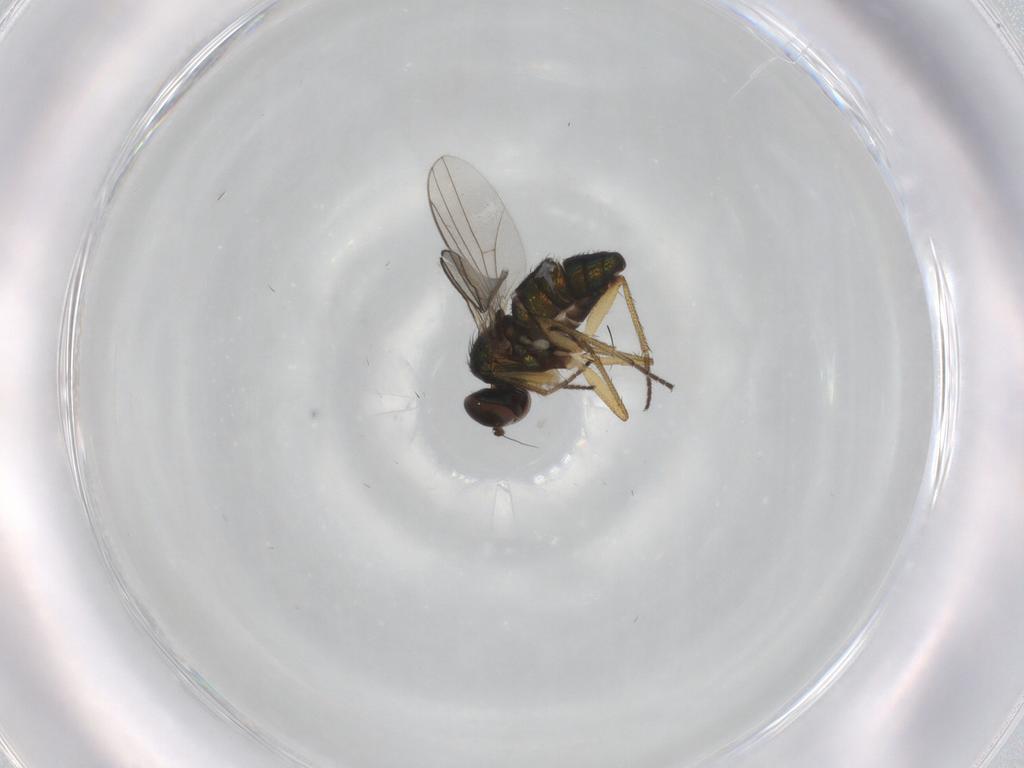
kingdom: Animalia
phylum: Arthropoda
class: Insecta
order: Diptera
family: Dolichopodidae
